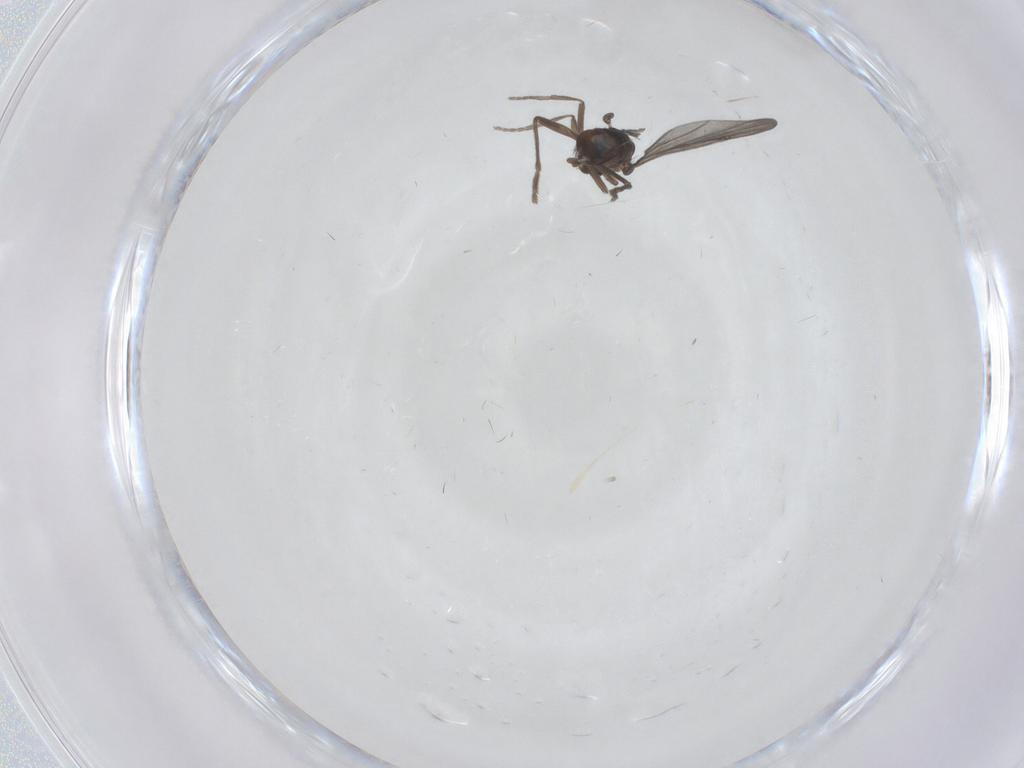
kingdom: Animalia
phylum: Arthropoda
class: Insecta
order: Diptera
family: Phoridae
